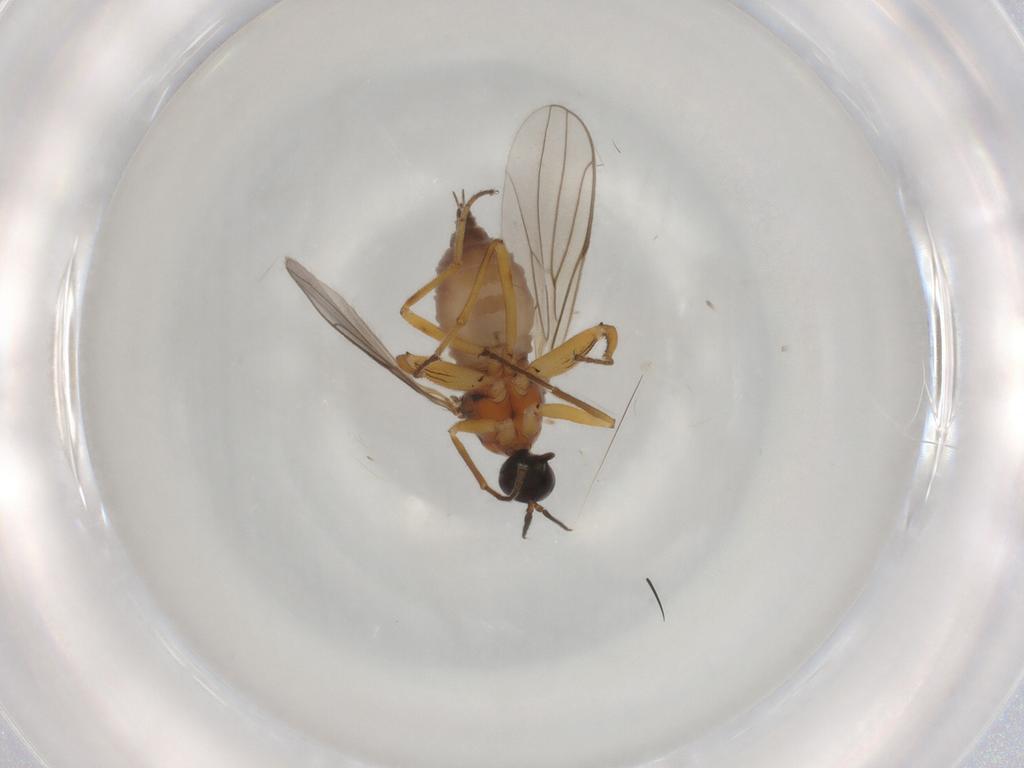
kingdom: Animalia
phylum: Arthropoda
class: Insecta
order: Diptera
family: Hybotidae
